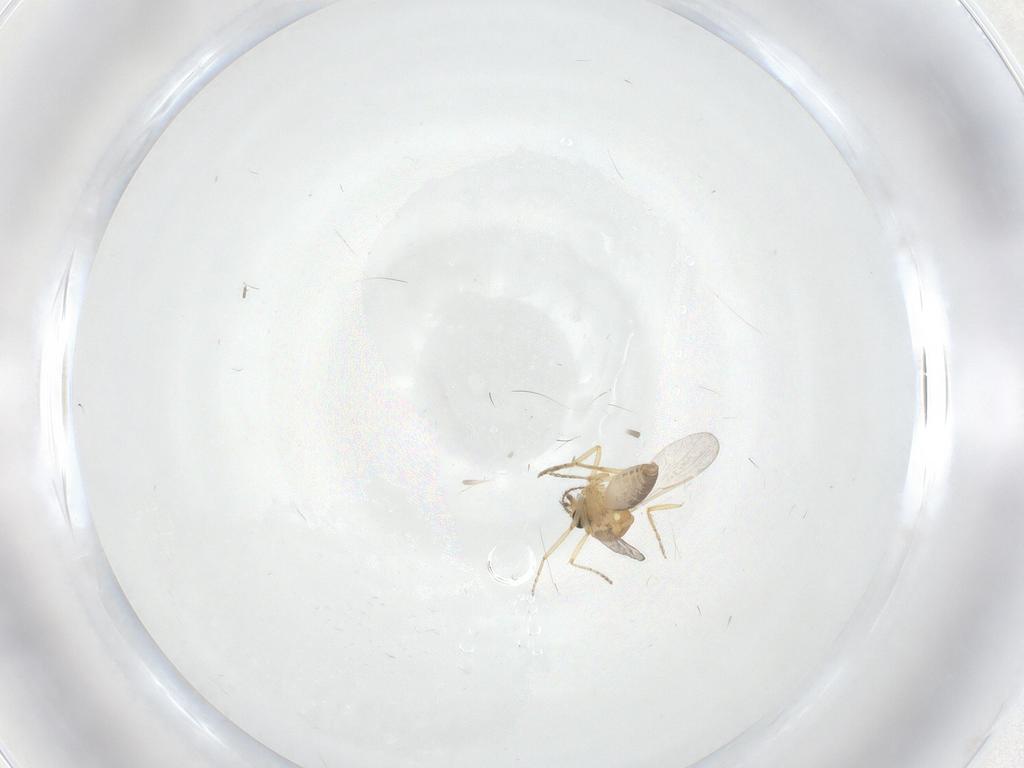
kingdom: Animalia
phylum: Arthropoda
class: Insecta
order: Diptera
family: Ceratopogonidae
